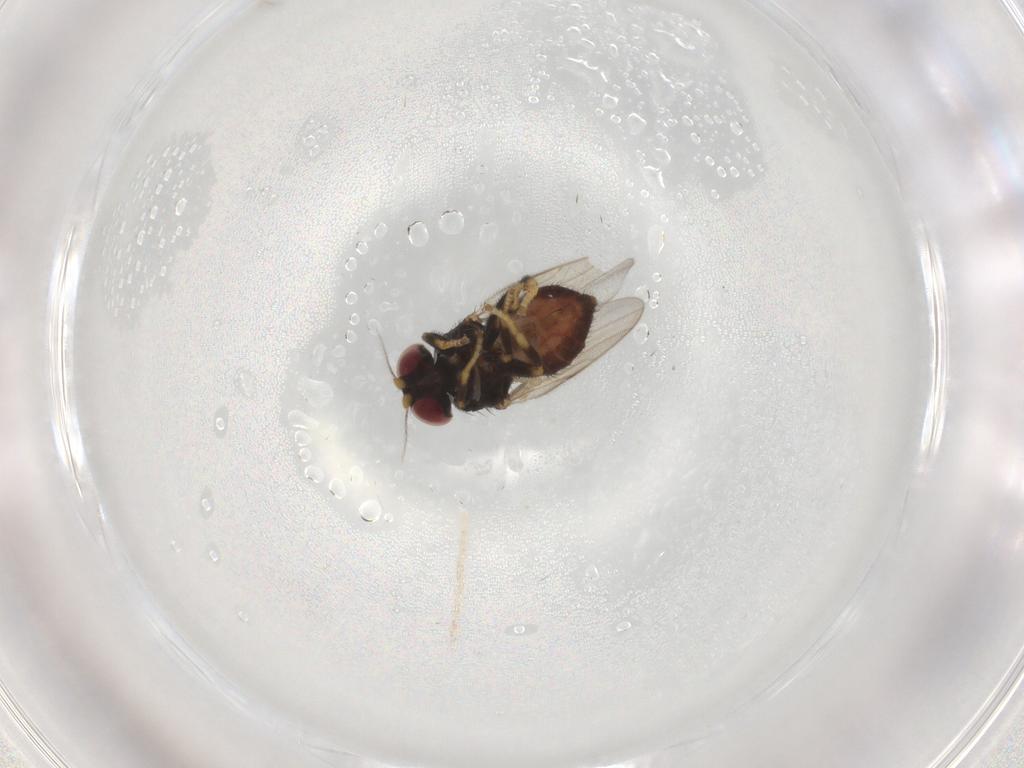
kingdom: Animalia
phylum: Arthropoda
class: Insecta
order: Diptera
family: Chloropidae
